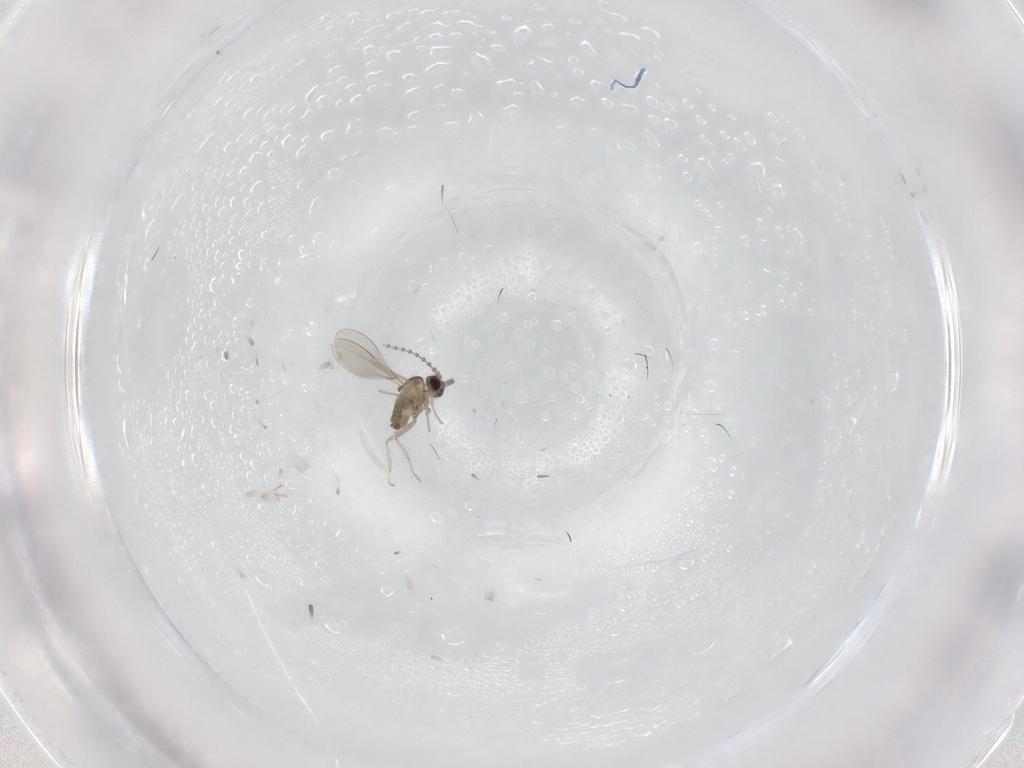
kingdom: Animalia
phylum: Arthropoda
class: Insecta
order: Diptera
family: Cecidomyiidae
